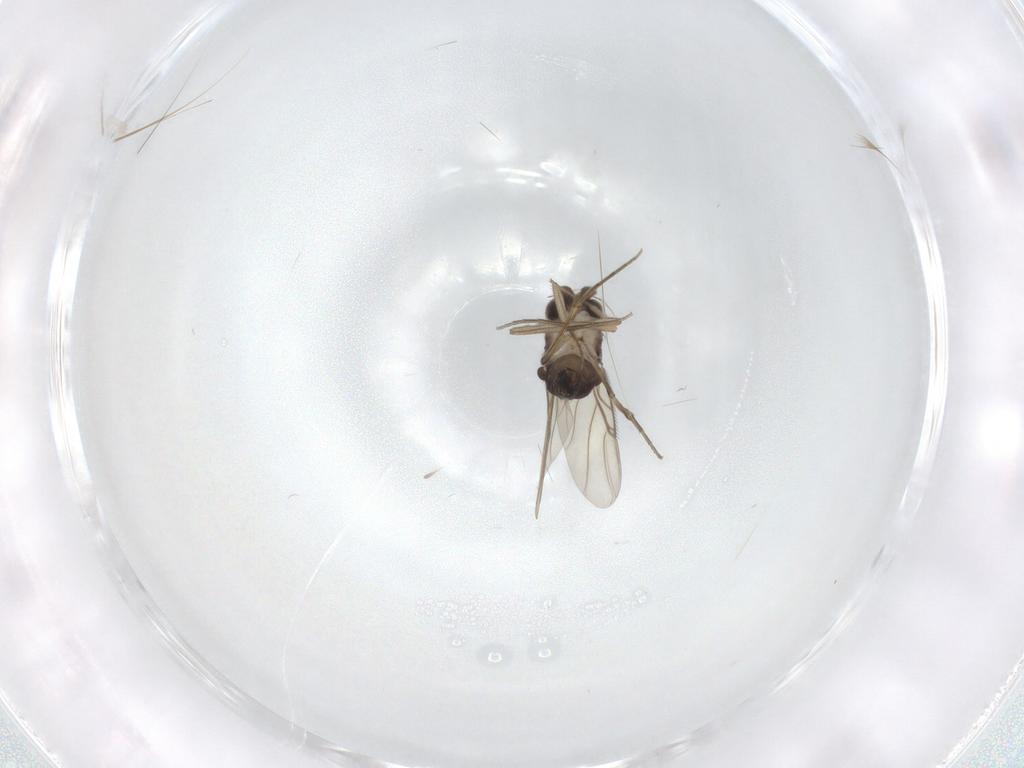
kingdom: Animalia
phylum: Arthropoda
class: Insecta
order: Diptera
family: Phoridae
